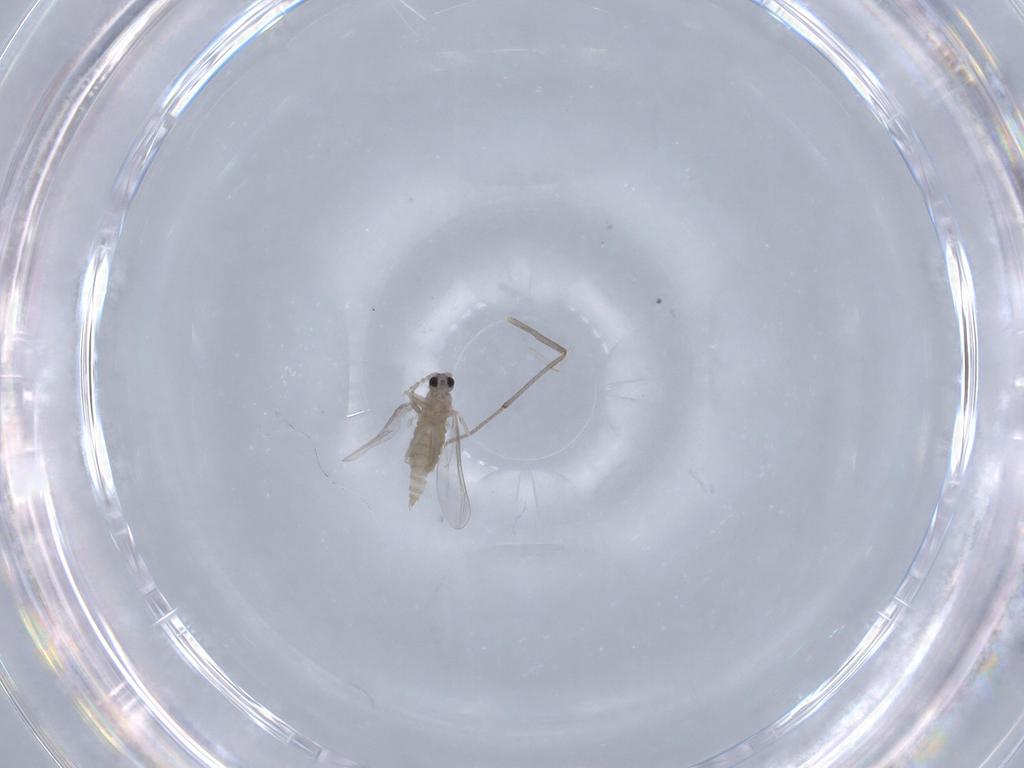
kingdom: Animalia
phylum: Arthropoda
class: Insecta
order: Diptera
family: Cecidomyiidae
